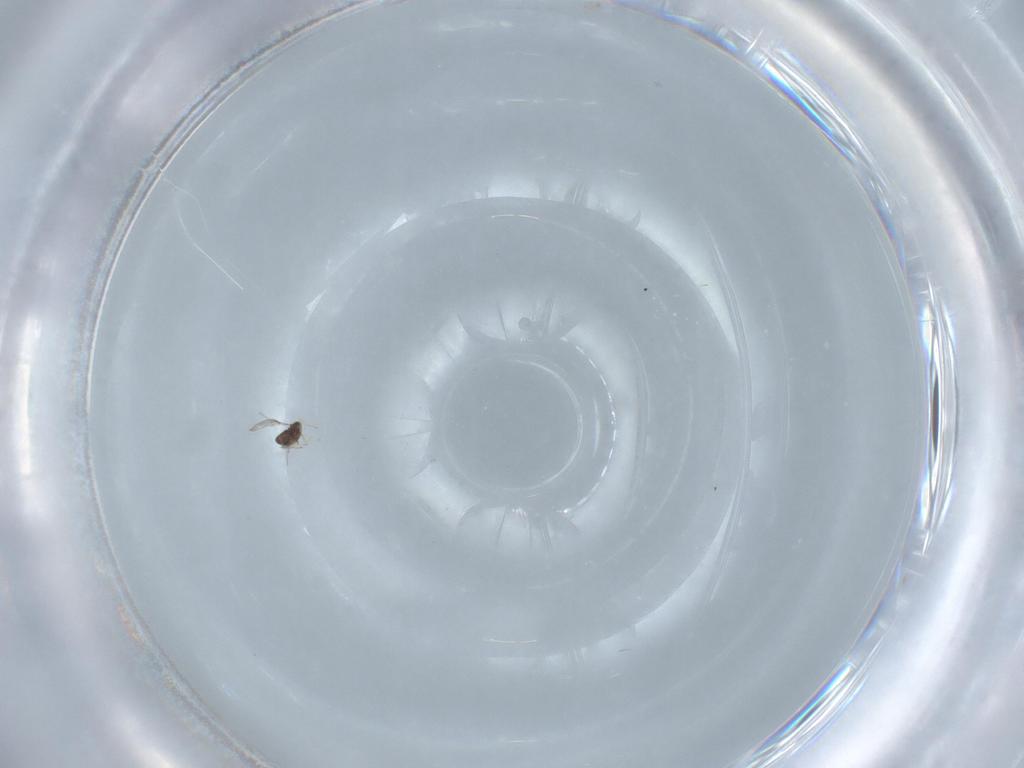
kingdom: Animalia
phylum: Arthropoda
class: Insecta
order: Hymenoptera
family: Trichogrammatidae
